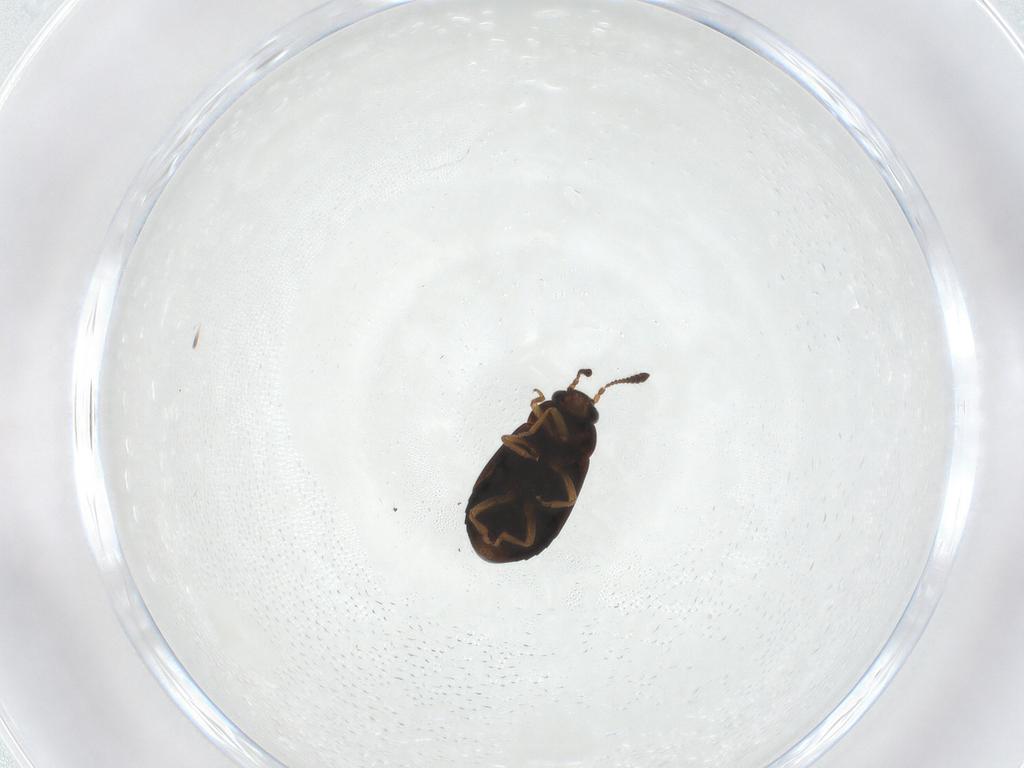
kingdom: Animalia
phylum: Arthropoda
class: Insecta
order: Coleoptera
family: Staphylinidae
